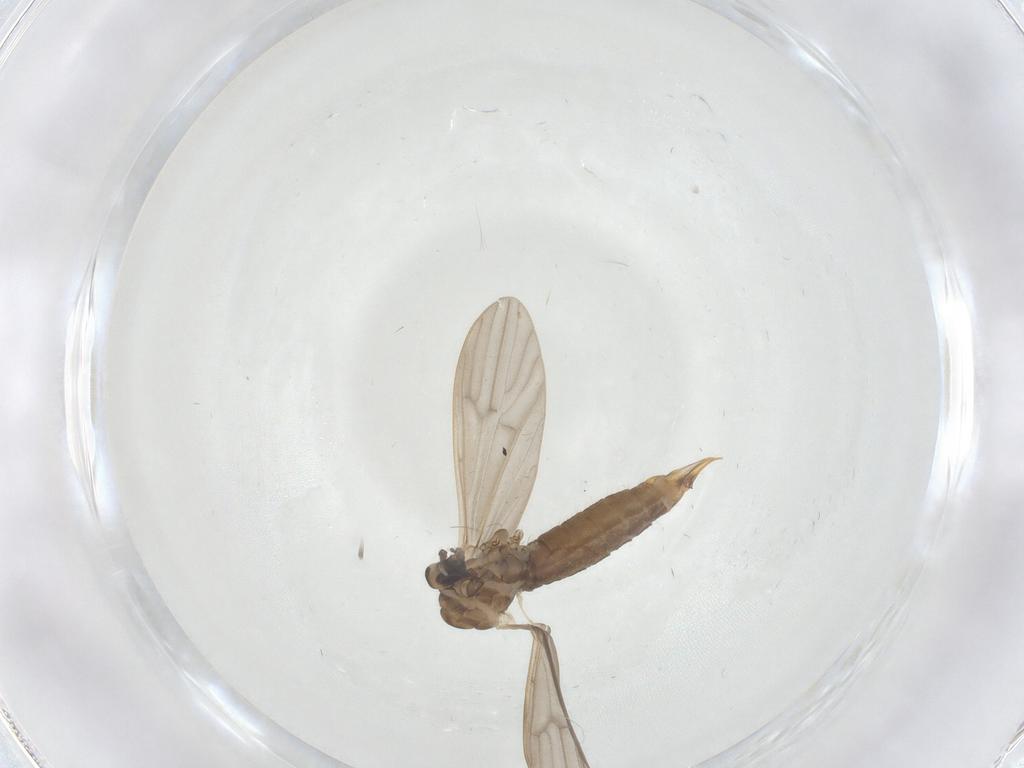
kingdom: Animalia
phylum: Arthropoda
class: Insecta
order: Diptera
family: Limoniidae
